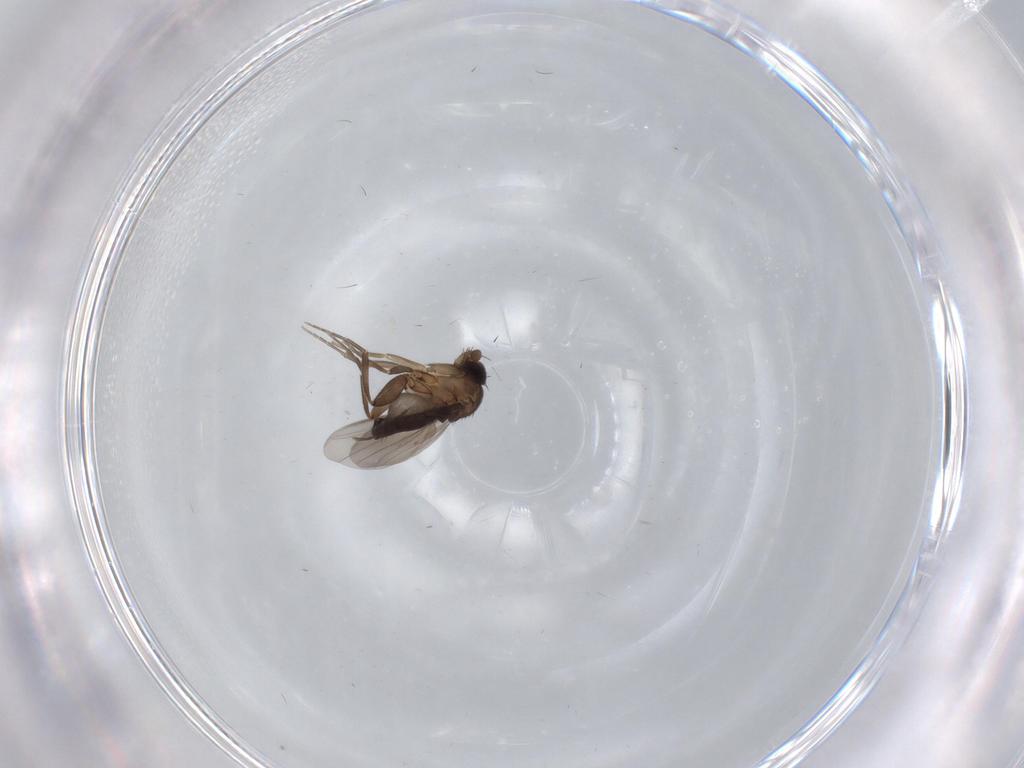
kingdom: Animalia
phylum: Arthropoda
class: Insecta
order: Diptera
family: Phoridae
